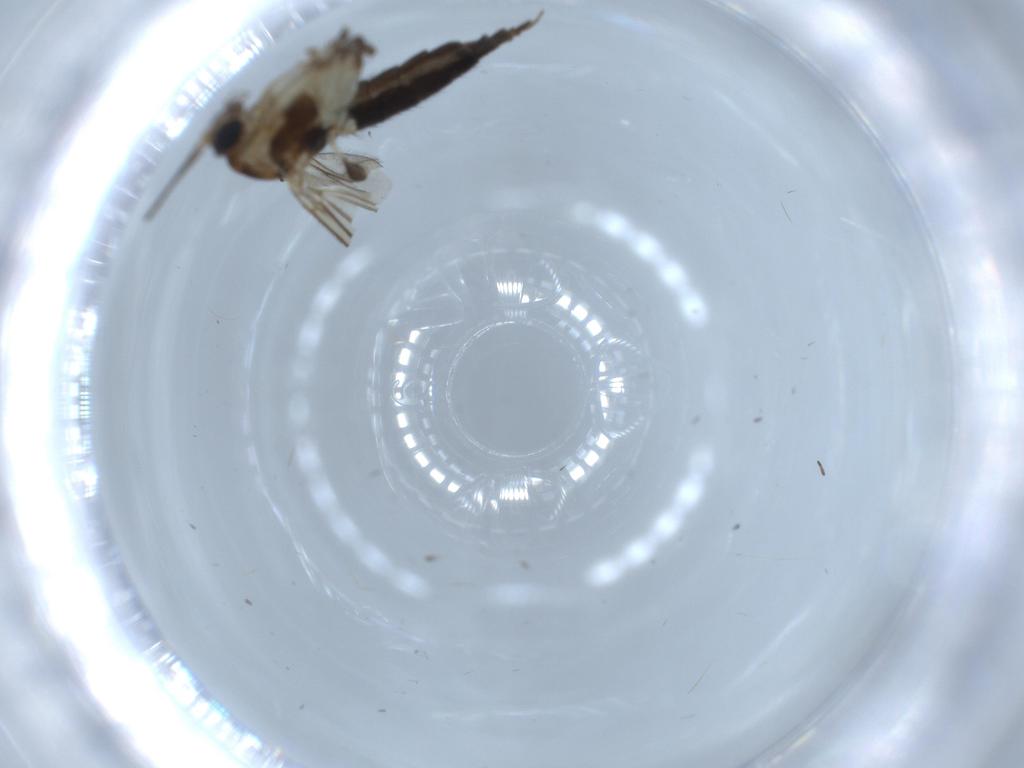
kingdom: Animalia
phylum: Arthropoda
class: Insecta
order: Diptera
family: Sciaridae
